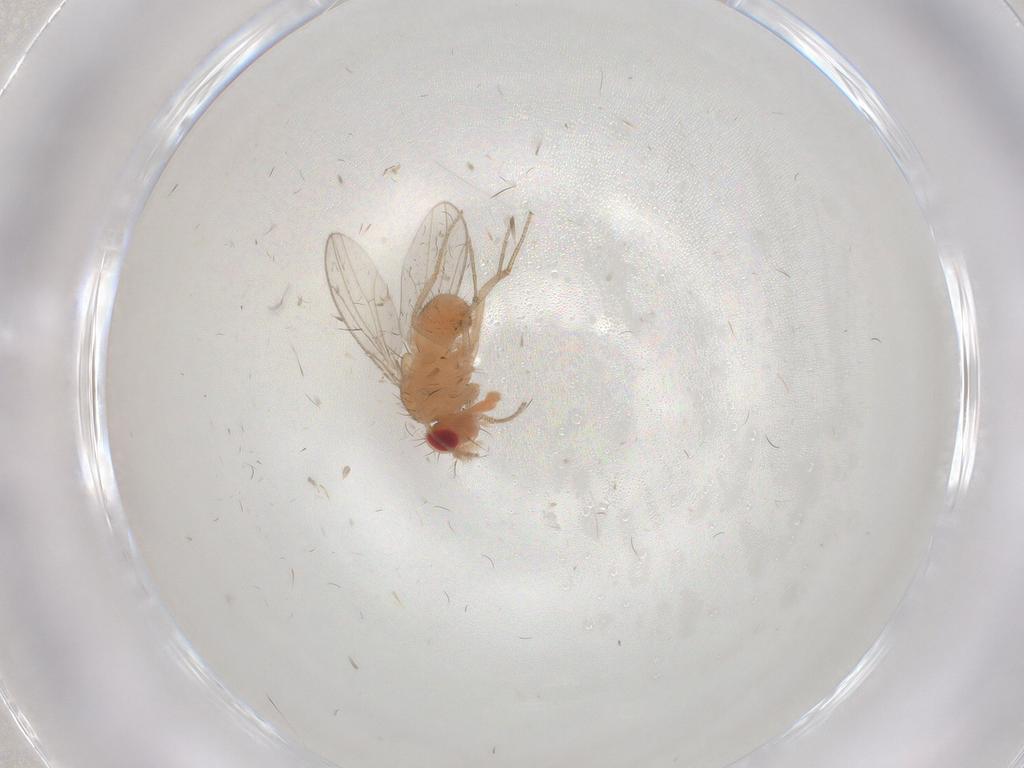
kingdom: Animalia
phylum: Arthropoda
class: Insecta
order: Diptera
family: Drosophilidae
